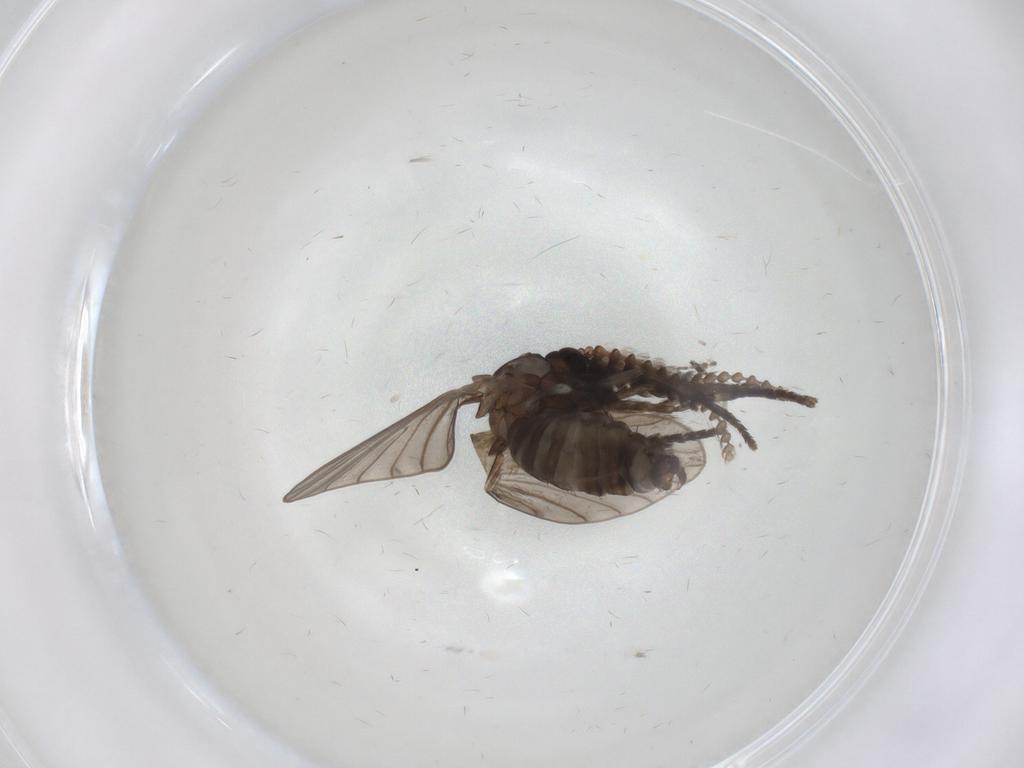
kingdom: Animalia
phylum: Arthropoda
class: Insecta
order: Diptera
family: Psychodidae
